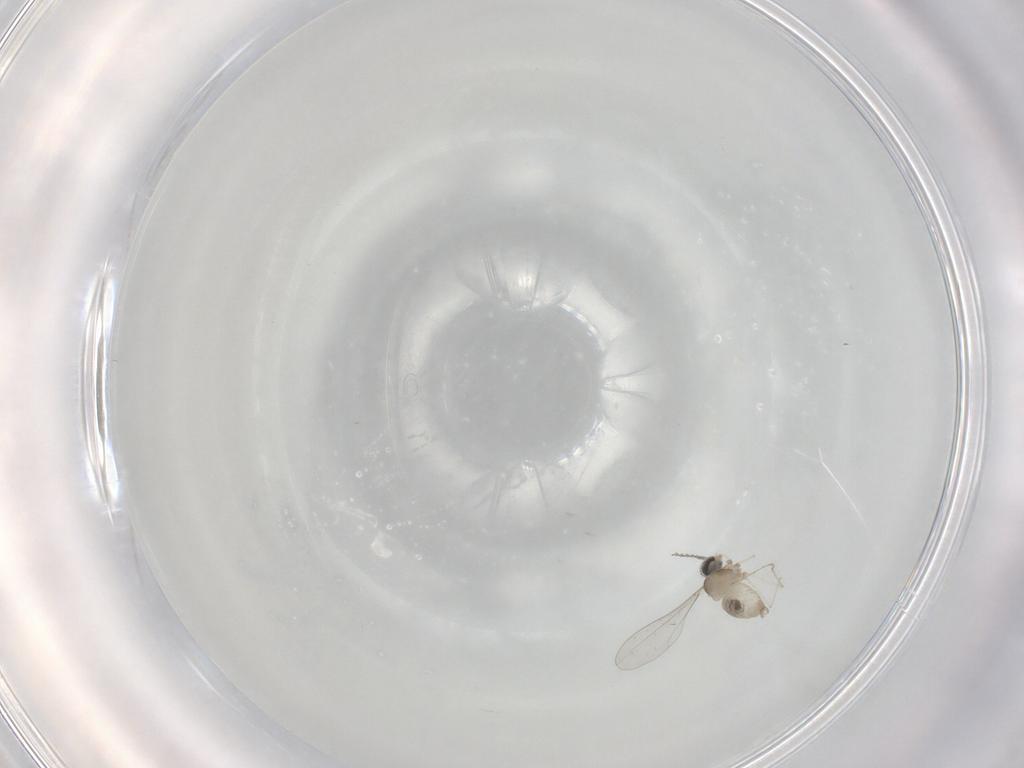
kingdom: Animalia
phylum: Arthropoda
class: Insecta
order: Diptera
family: Cecidomyiidae
